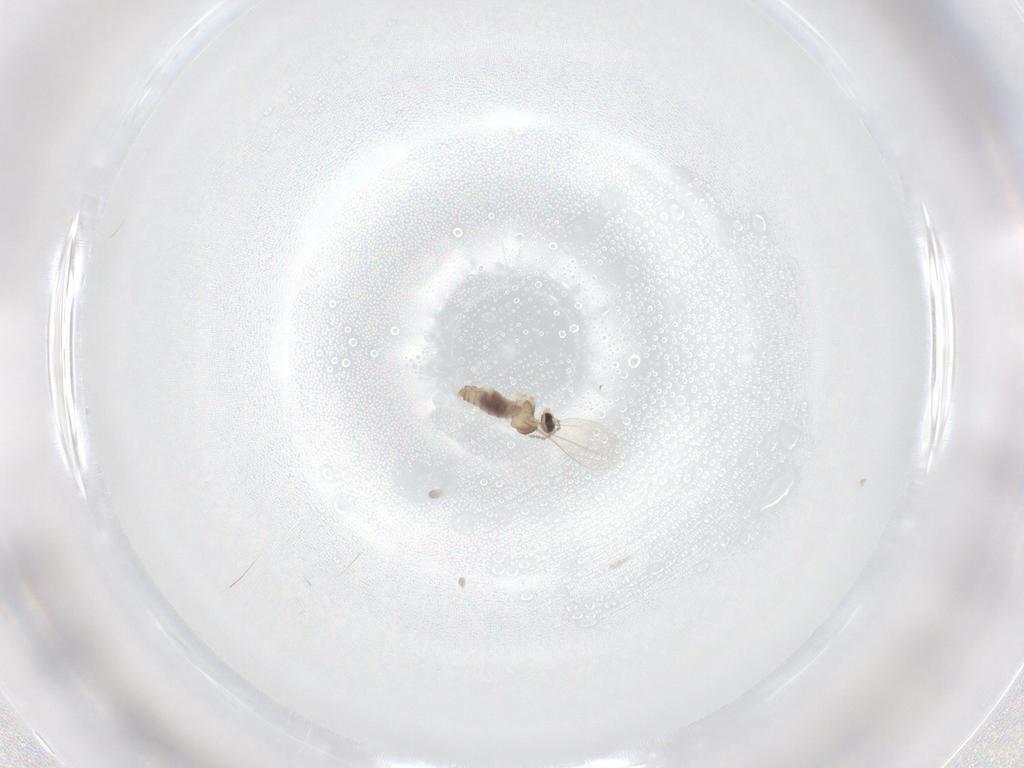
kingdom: Animalia
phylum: Arthropoda
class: Insecta
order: Diptera
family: Cecidomyiidae
